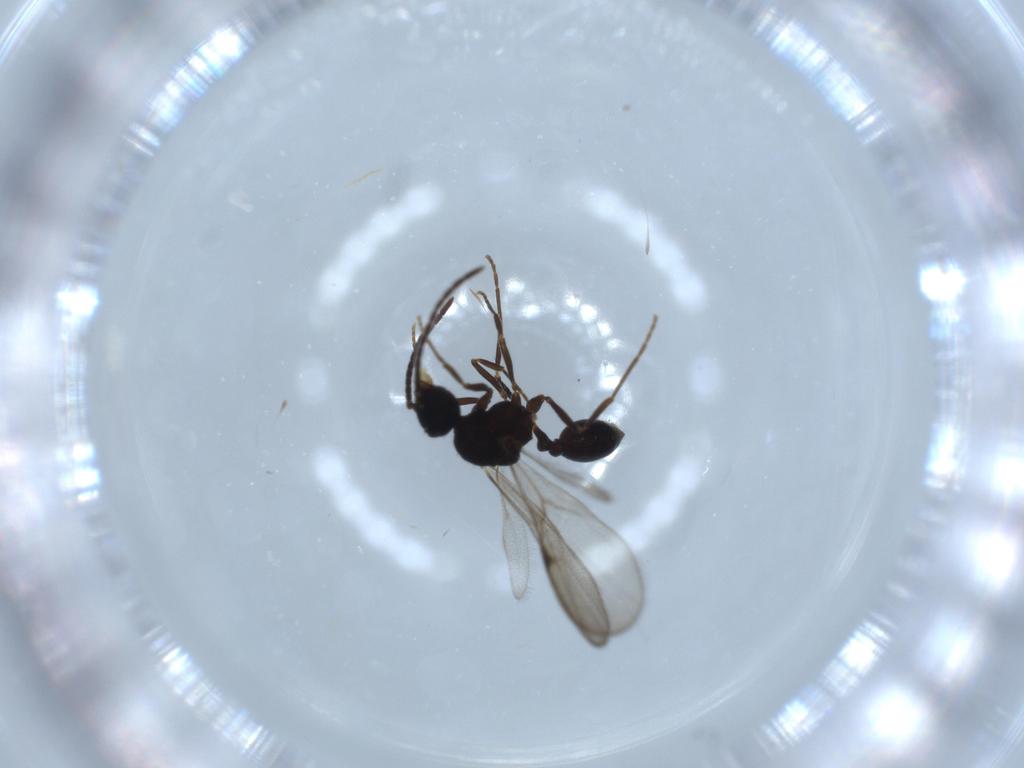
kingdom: Animalia
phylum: Arthropoda
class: Insecta
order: Hymenoptera
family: Formicidae
